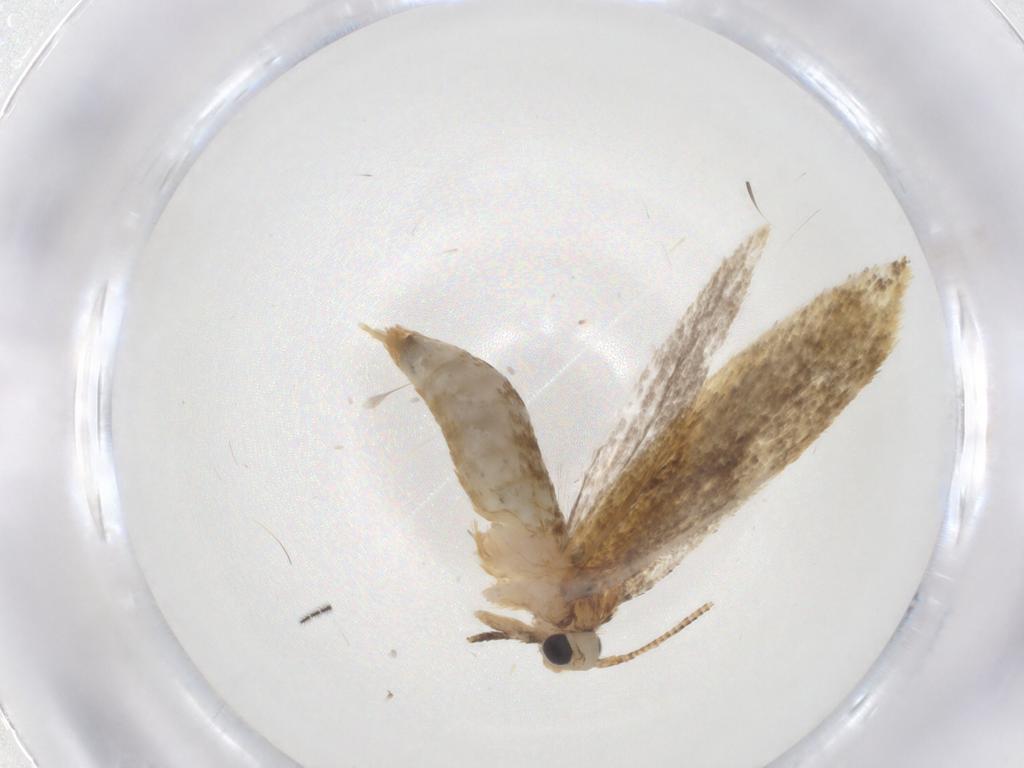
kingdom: Animalia
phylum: Arthropoda
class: Insecta
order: Lepidoptera
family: Tineidae
